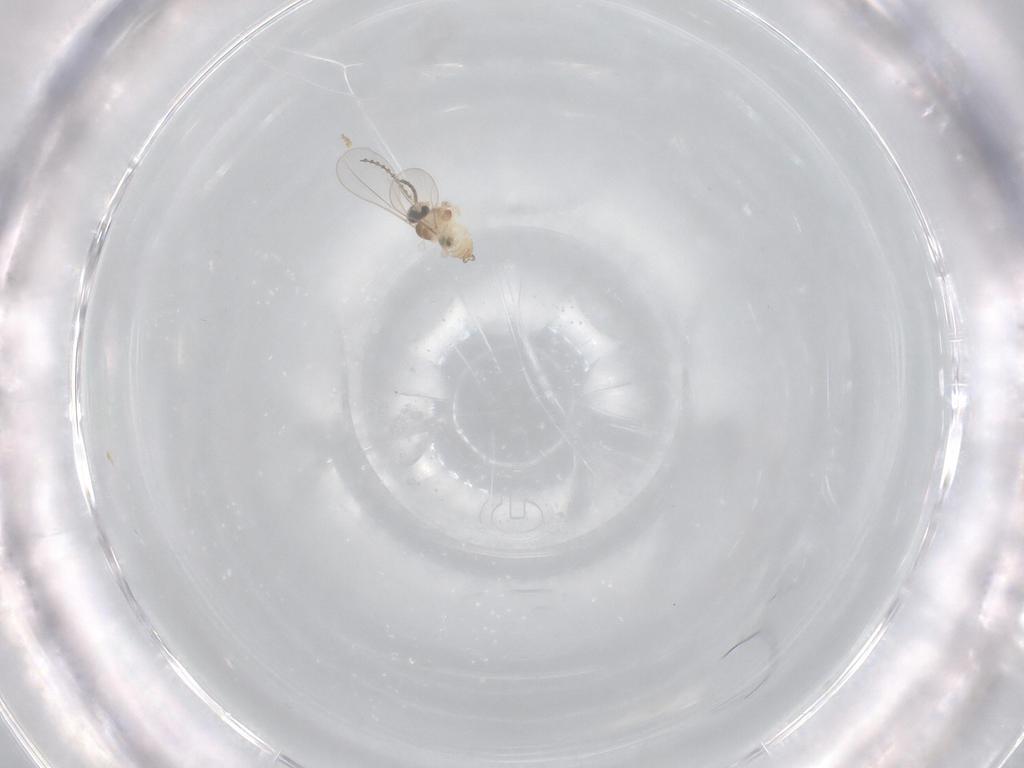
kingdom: Animalia
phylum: Arthropoda
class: Insecta
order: Diptera
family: Cecidomyiidae
